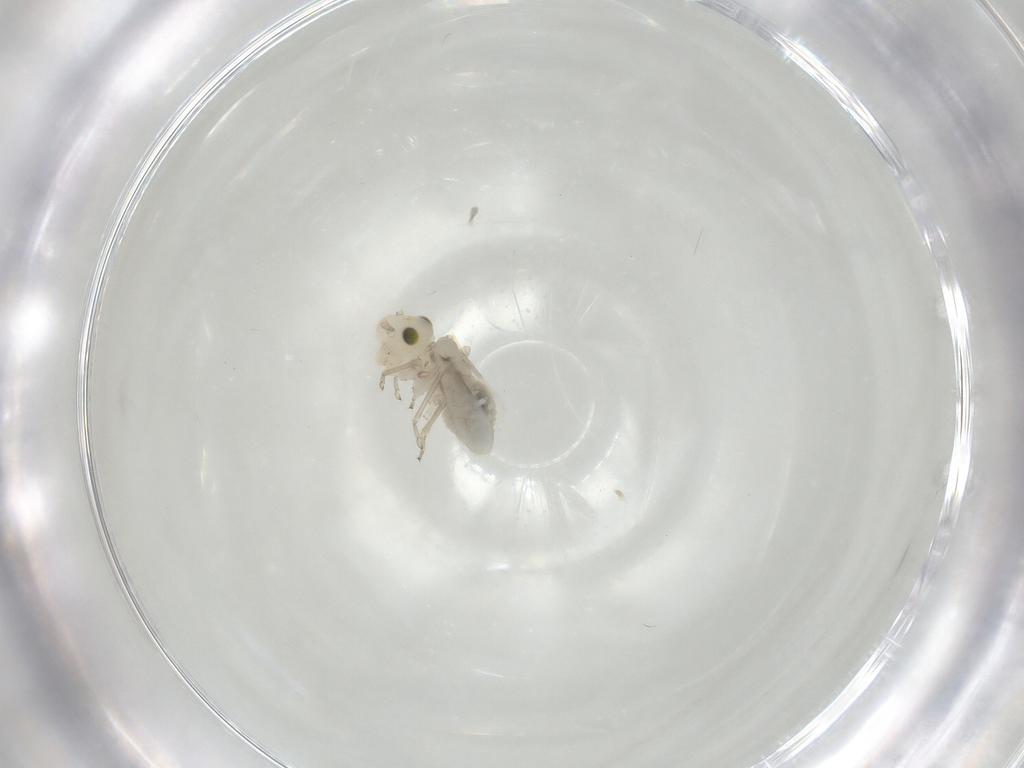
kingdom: Animalia
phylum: Arthropoda
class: Insecta
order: Psocodea
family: Caeciliusidae
